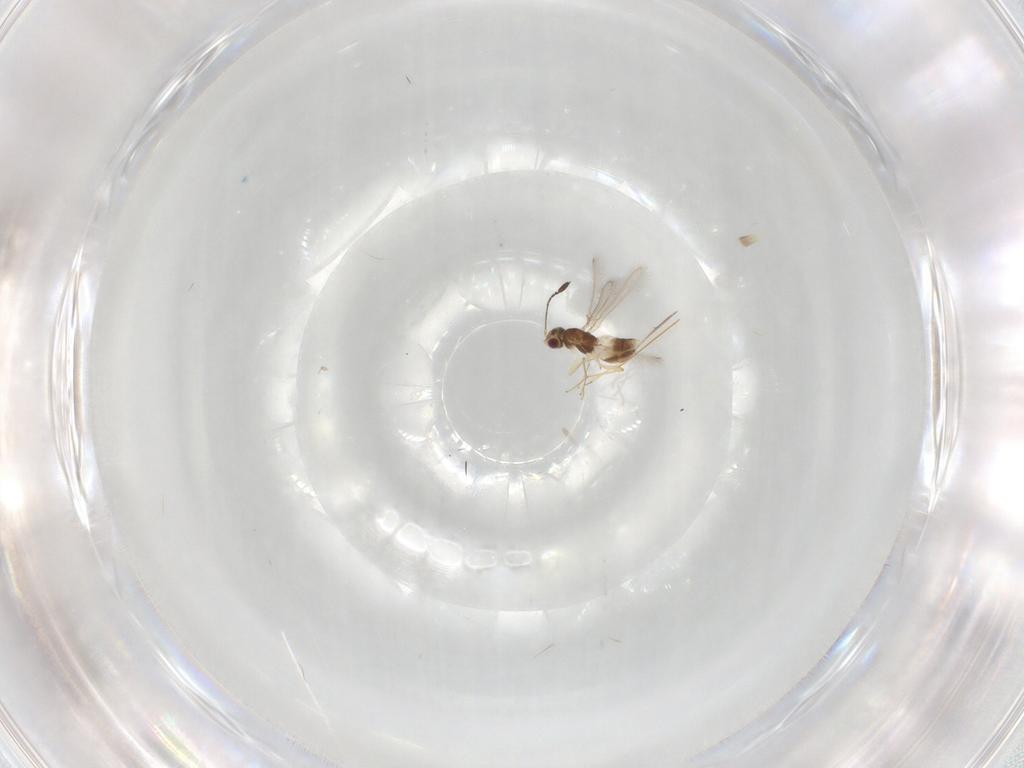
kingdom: Animalia
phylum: Arthropoda
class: Insecta
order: Hymenoptera
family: Mymaridae
